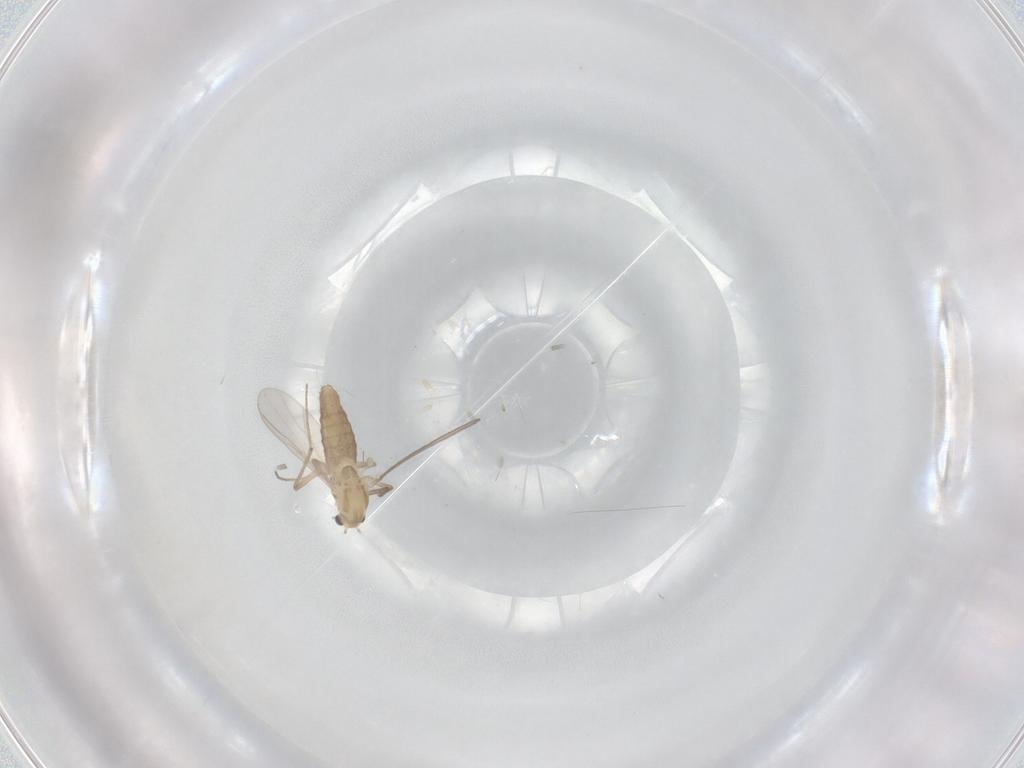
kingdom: Animalia
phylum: Arthropoda
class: Insecta
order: Diptera
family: Chironomidae
